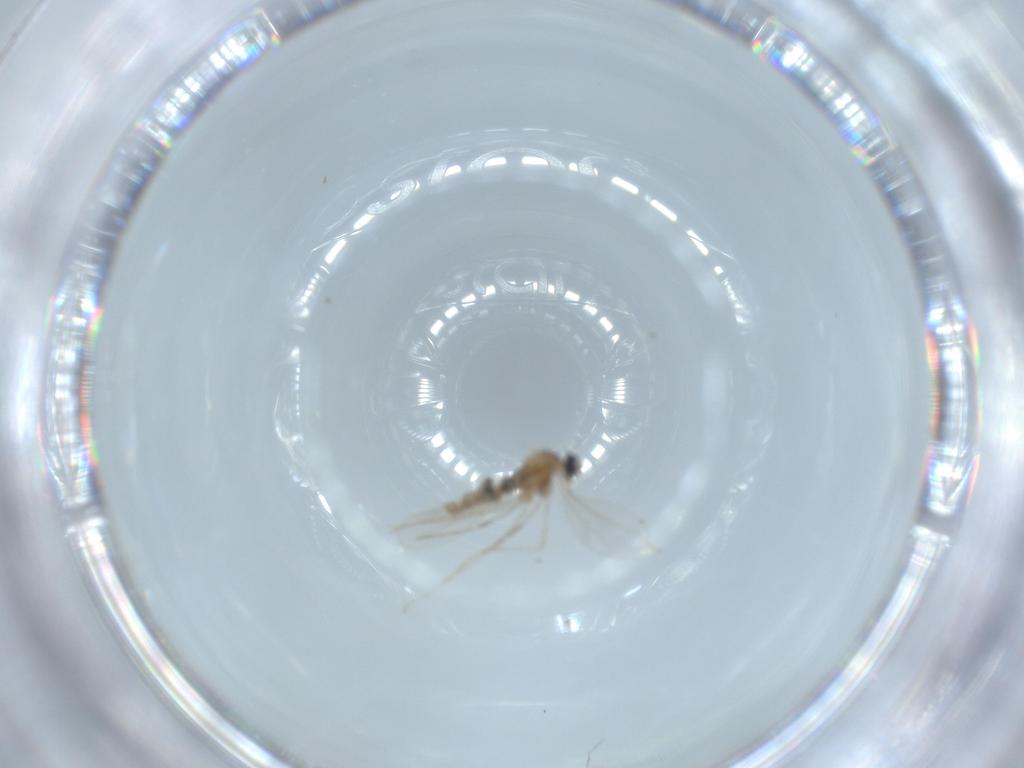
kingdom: Animalia
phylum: Arthropoda
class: Insecta
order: Diptera
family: Cecidomyiidae
